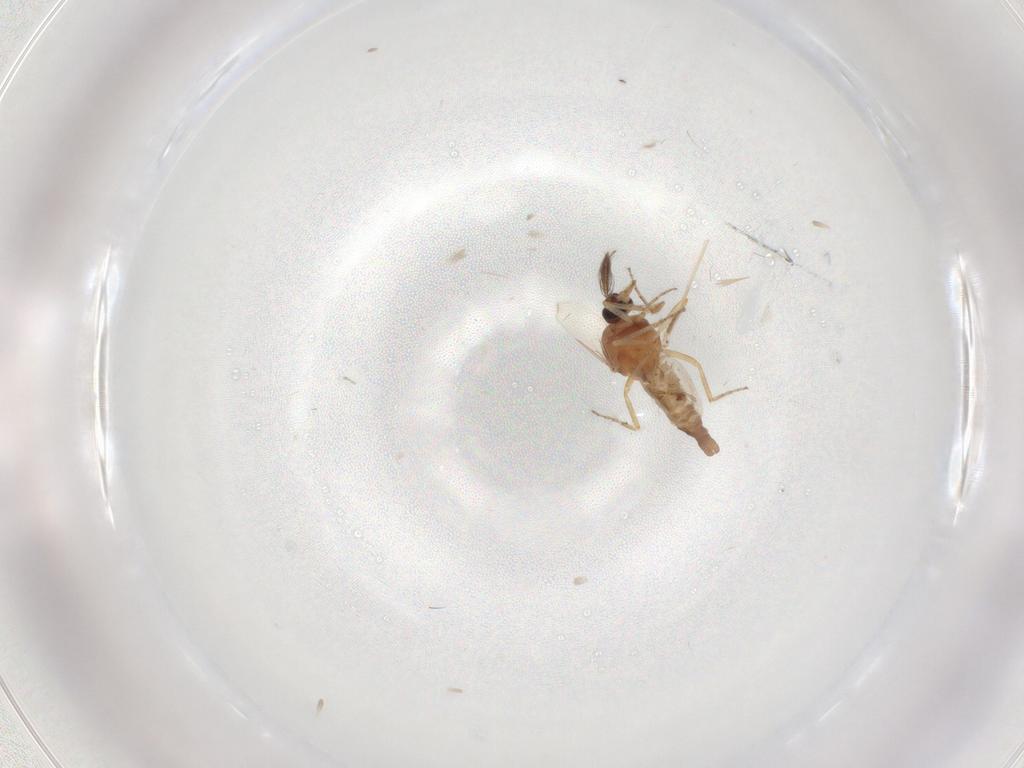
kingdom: Animalia
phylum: Arthropoda
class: Insecta
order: Diptera
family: Ceratopogonidae
